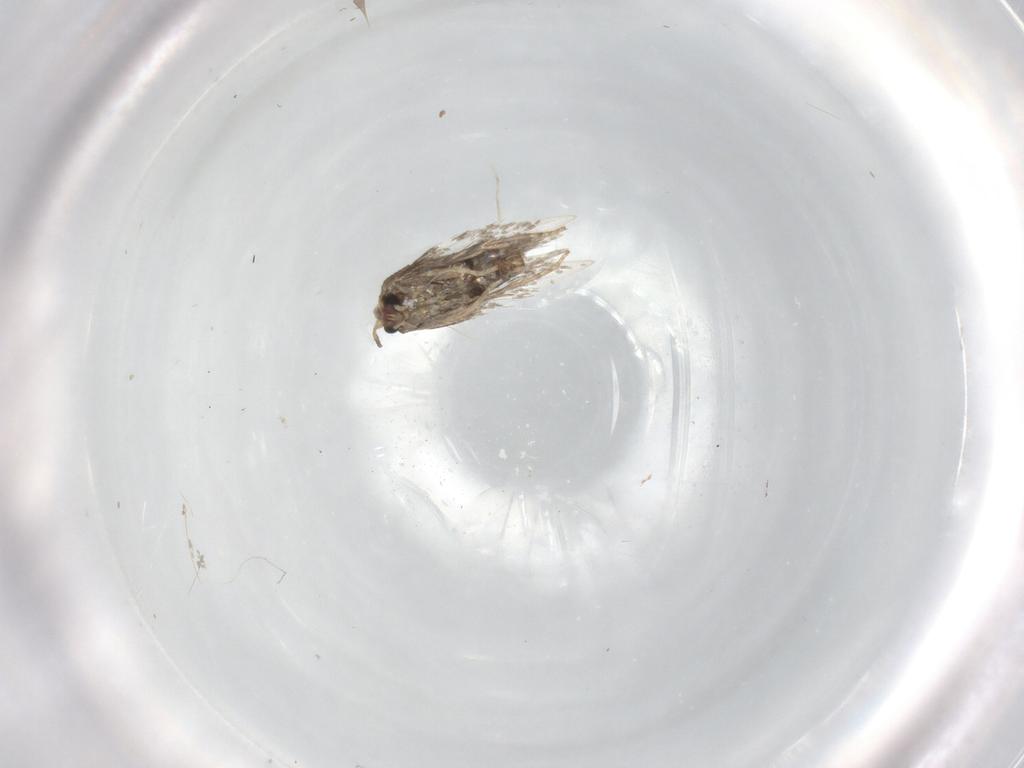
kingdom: Animalia
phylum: Arthropoda
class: Insecta
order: Lepidoptera
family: Nepticulidae
